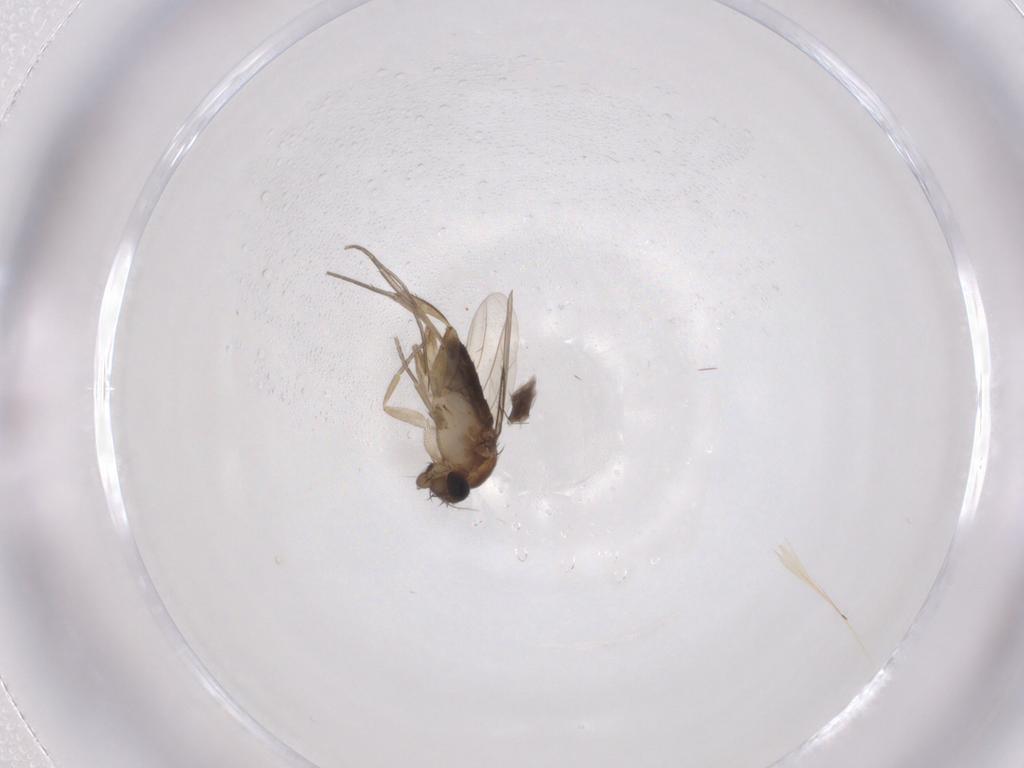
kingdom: Animalia
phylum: Arthropoda
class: Insecta
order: Diptera
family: Phoridae
